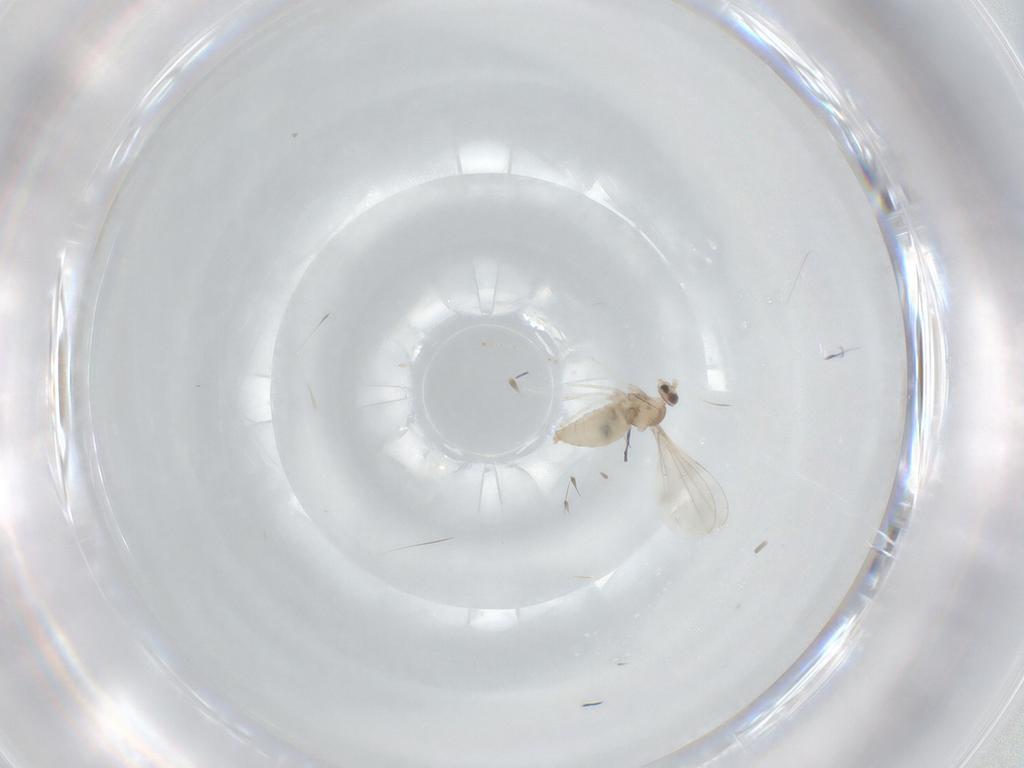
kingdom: Animalia
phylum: Arthropoda
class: Insecta
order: Diptera
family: Cecidomyiidae
